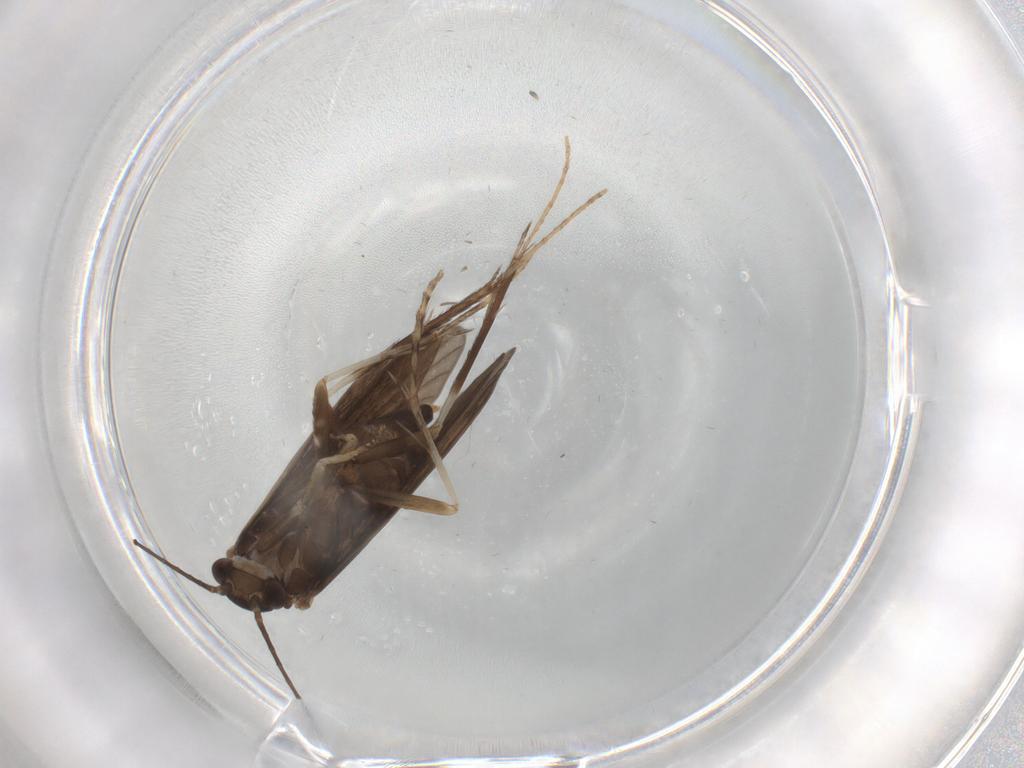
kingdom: Animalia
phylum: Arthropoda
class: Insecta
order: Trichoptera
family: Xiphocentronidae
